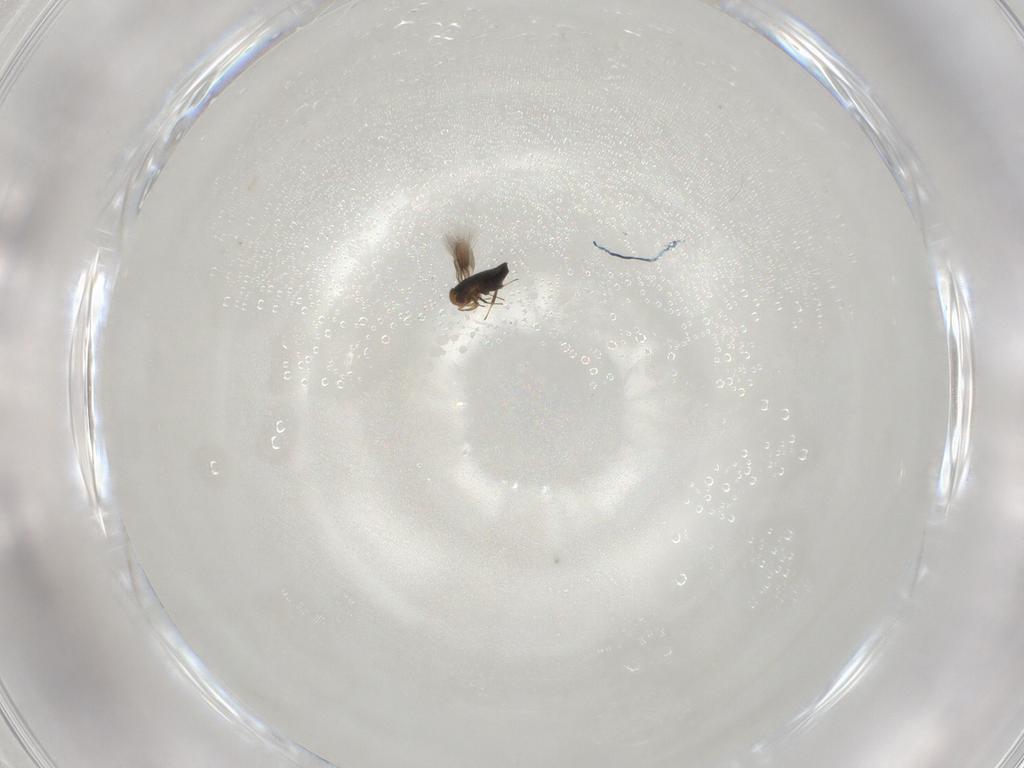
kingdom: Animalia
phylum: Arthropoda
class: Insecta
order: Hymenoptera
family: Signiphoridae
